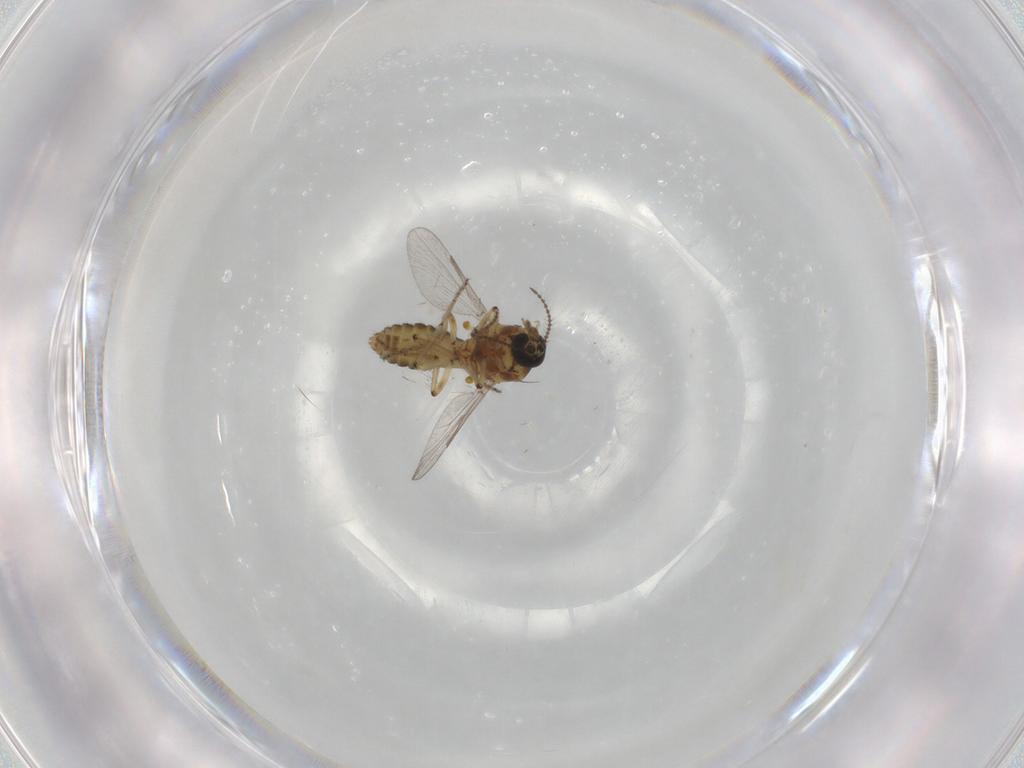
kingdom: Animalia
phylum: Arthropoda
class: Insecta
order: Diptera
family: Ceratopogonidae
